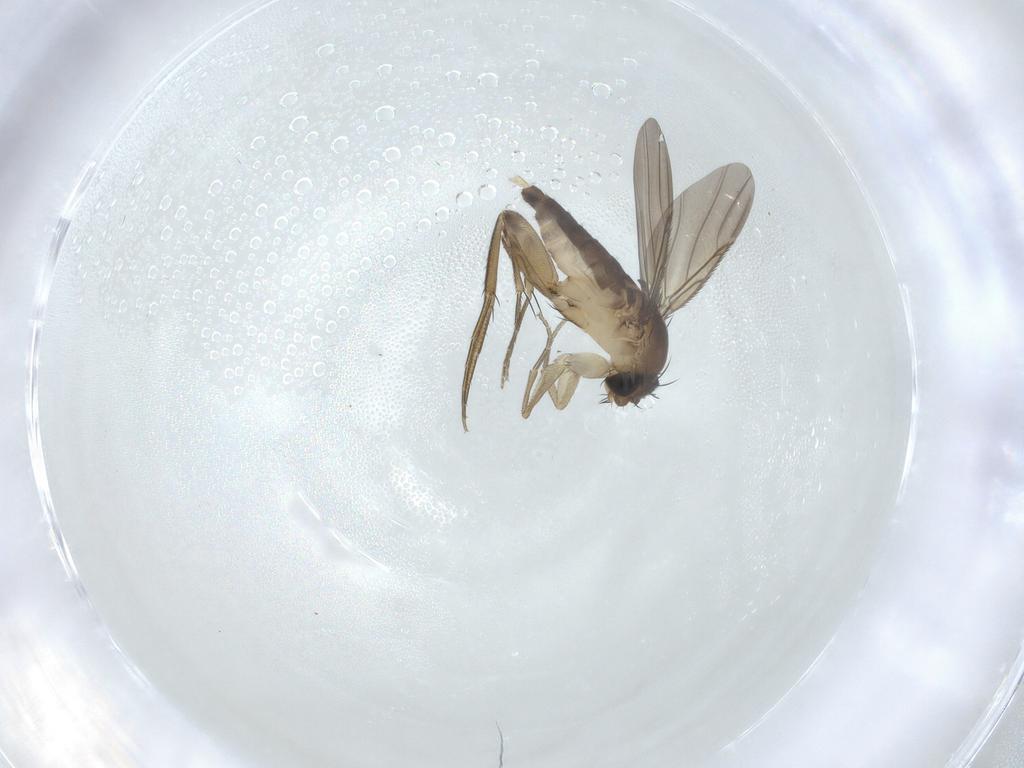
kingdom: Animalia
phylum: Arthropoda
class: Insecta
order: Diptera
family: Phoridae
